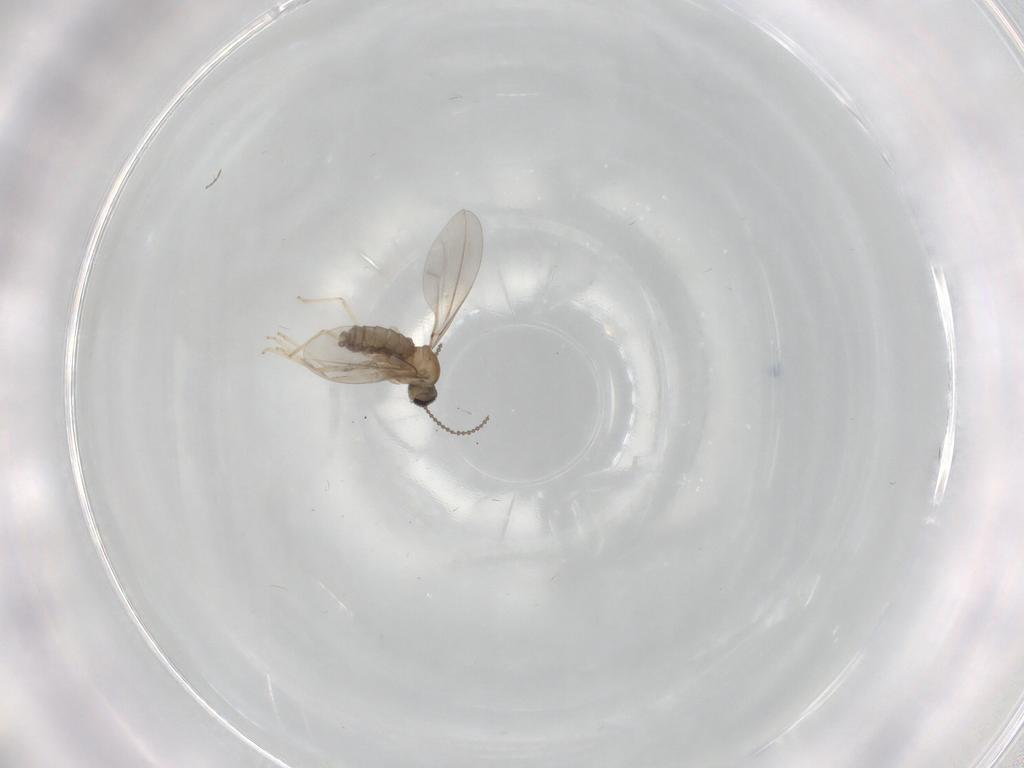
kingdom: Animalia
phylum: Arthropoda
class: Insecta
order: Diptera
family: Chironomidae
